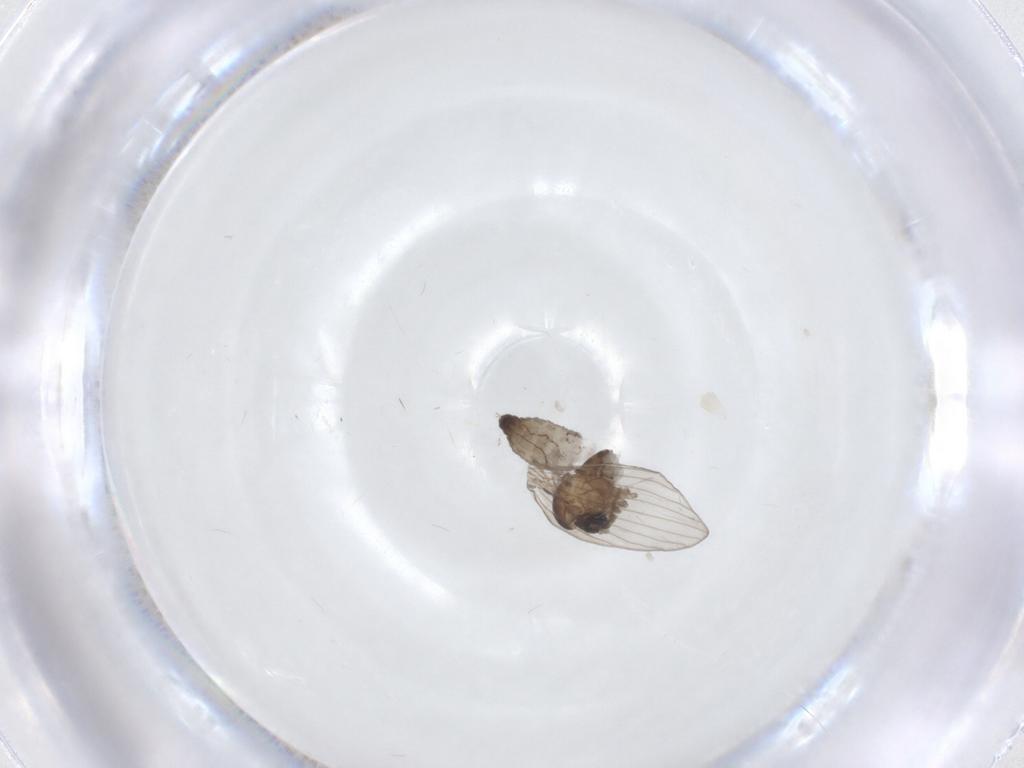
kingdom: Animalia
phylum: Arthropoda
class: Insecta
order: Diptera
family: Psychodidae
